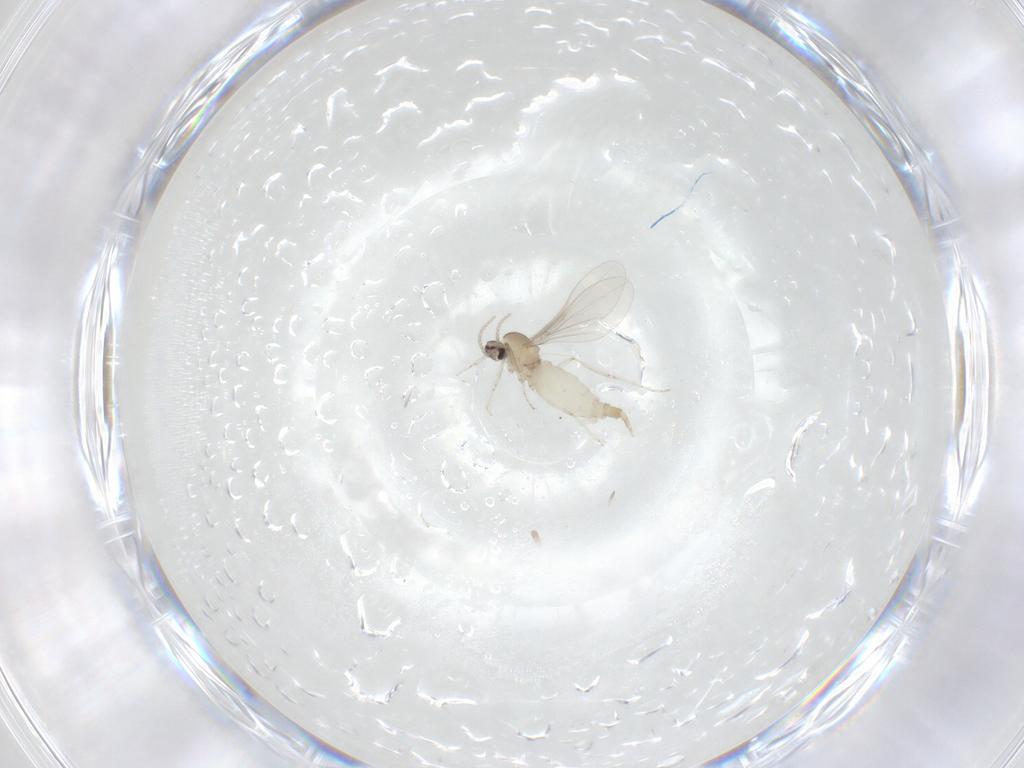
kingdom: Animalia
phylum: Arthropoda
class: Insecta
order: Diptera
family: Cecidomyiidae
